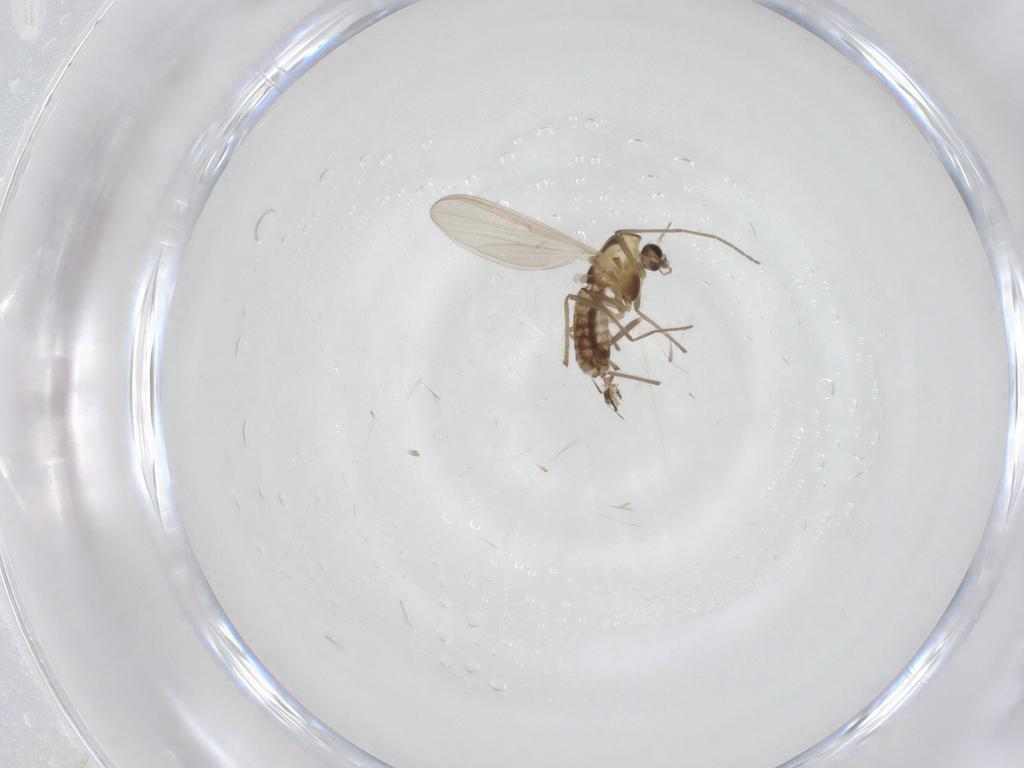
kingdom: Animalia
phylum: Arthropoda
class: Insecta
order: Diptera
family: Chironomidae
